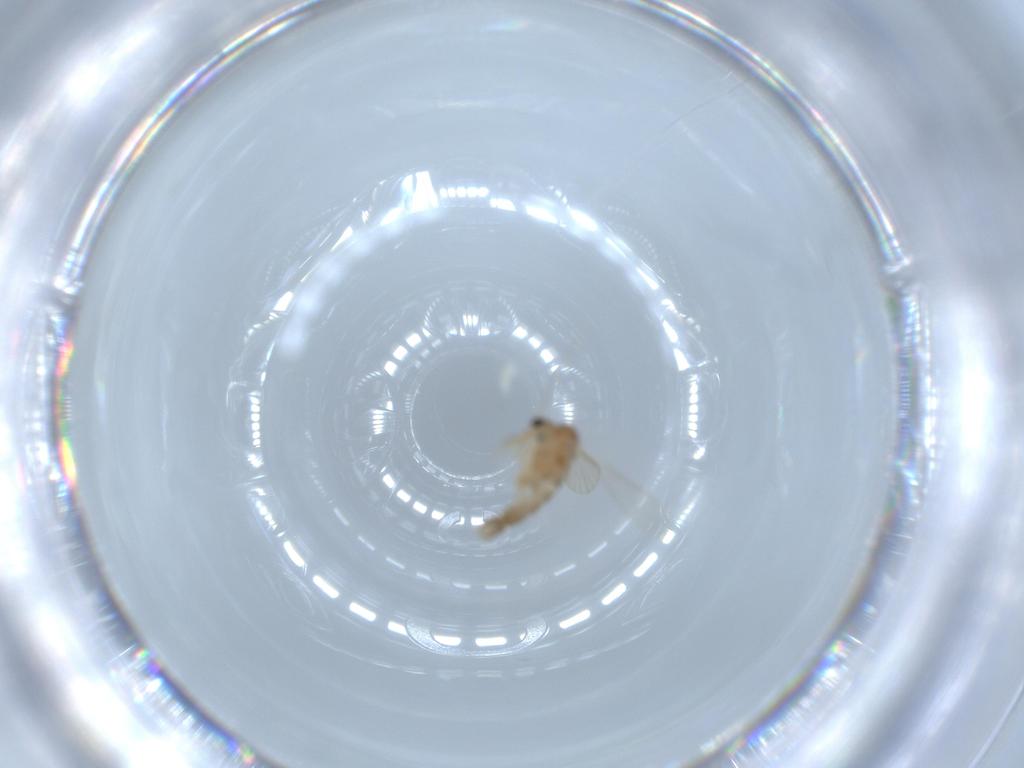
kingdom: Animalia
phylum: Arthropoda
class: Insecta
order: Diptera
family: Psychodidae
